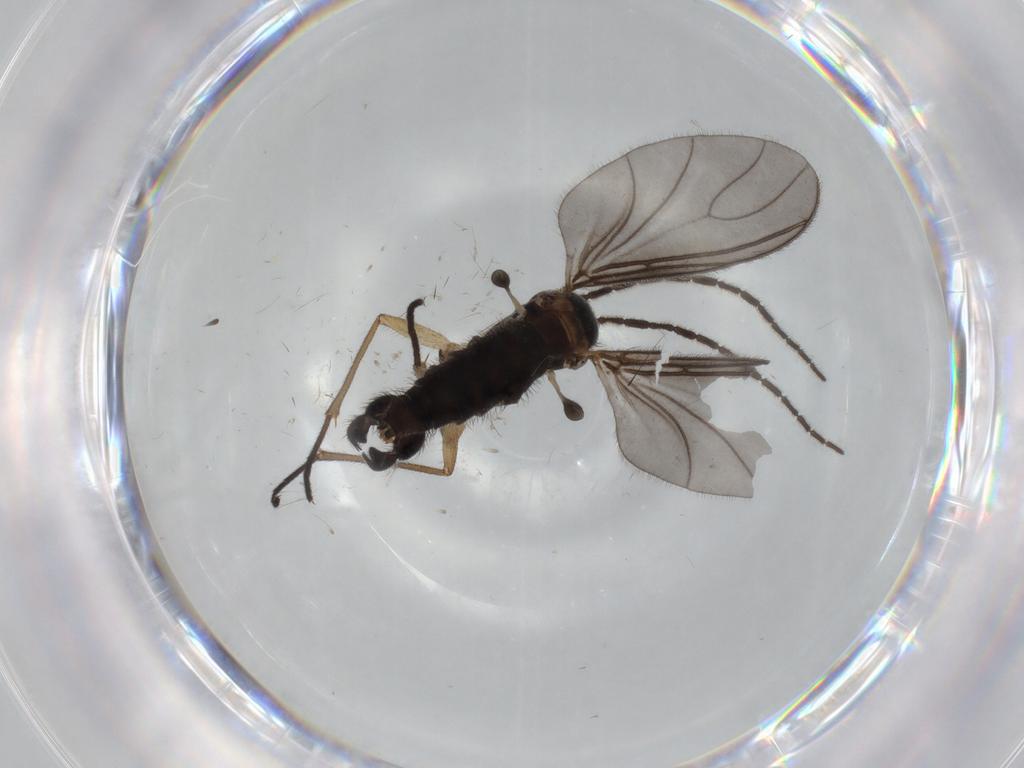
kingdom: Animalia
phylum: Arthropoda
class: Insecta
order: Diptera
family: Sciaridae
